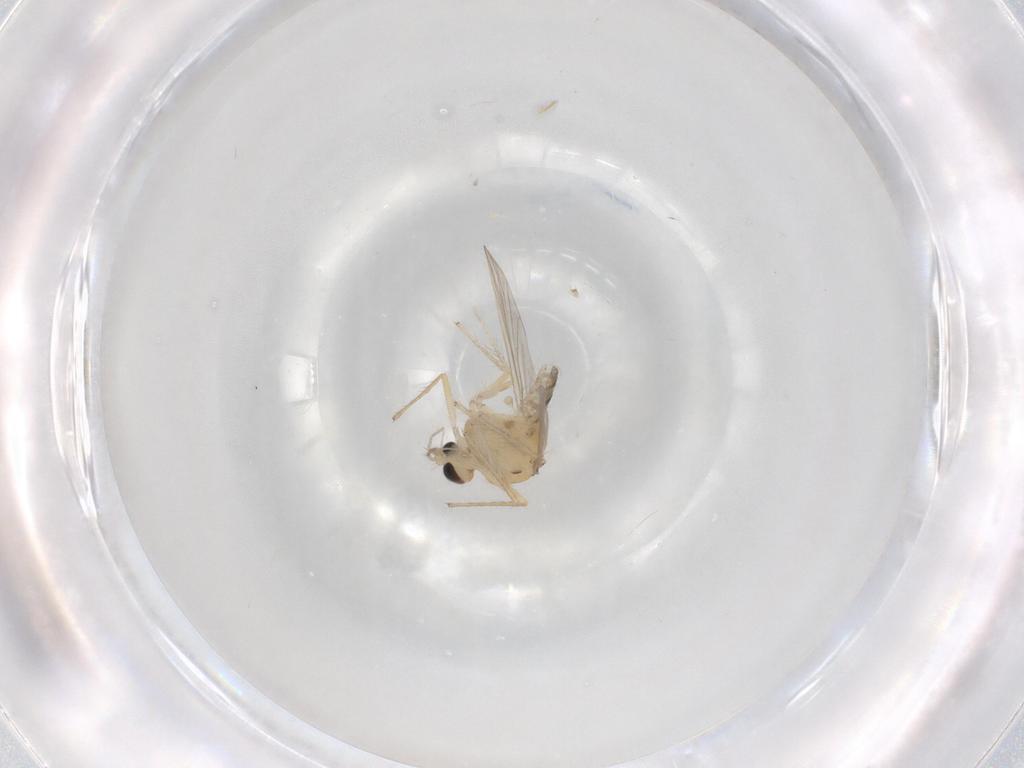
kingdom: Animalia
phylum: Arthropoda
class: Insecta
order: Diptera
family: Chironomidae
